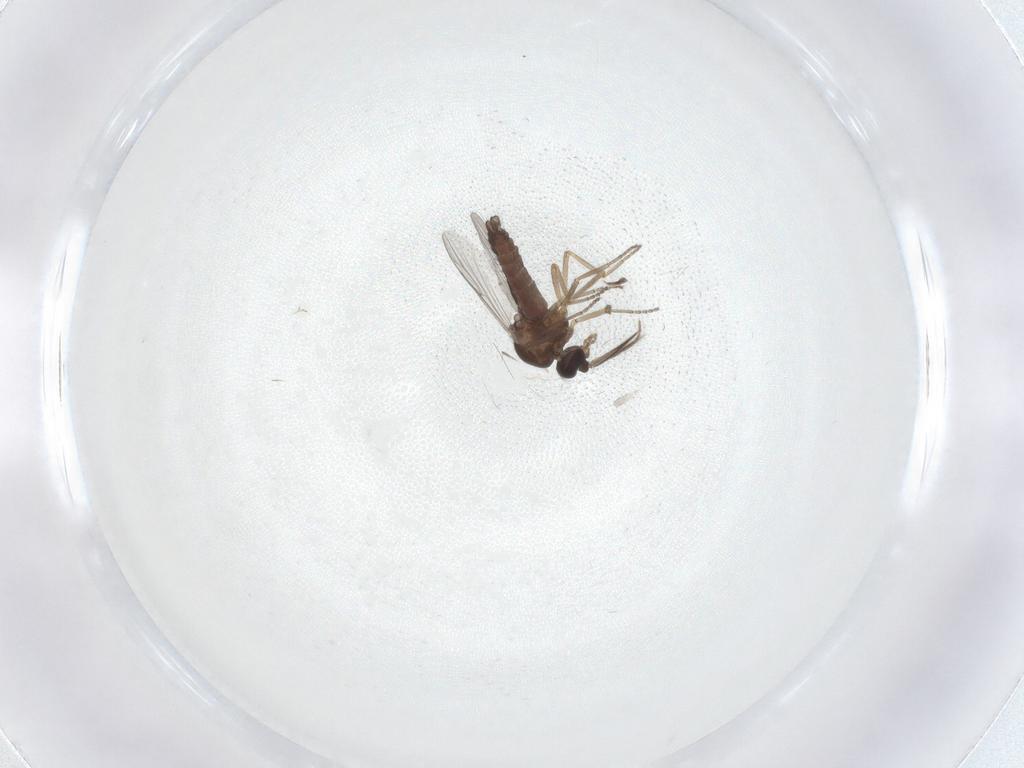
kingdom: Animalia
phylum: Arthropoda
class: Insecta
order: Diptera
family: Ceratopogonidae
